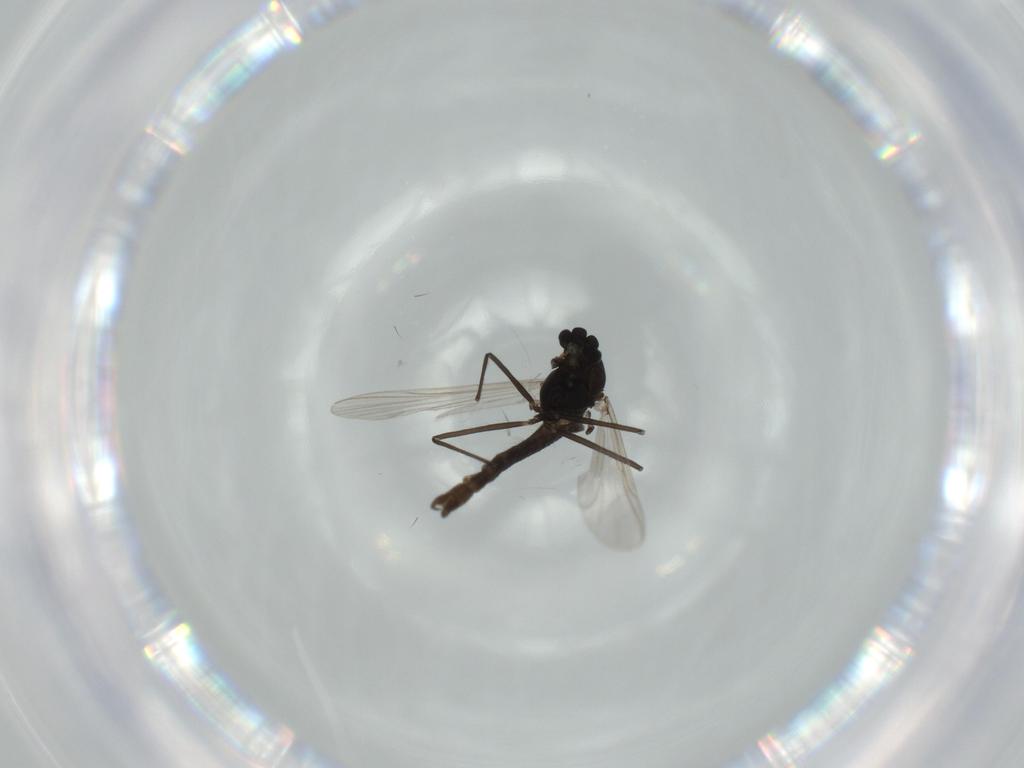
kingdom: Animalia
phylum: Arthropoda
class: Insecta
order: Diptera
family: Chironomidae
